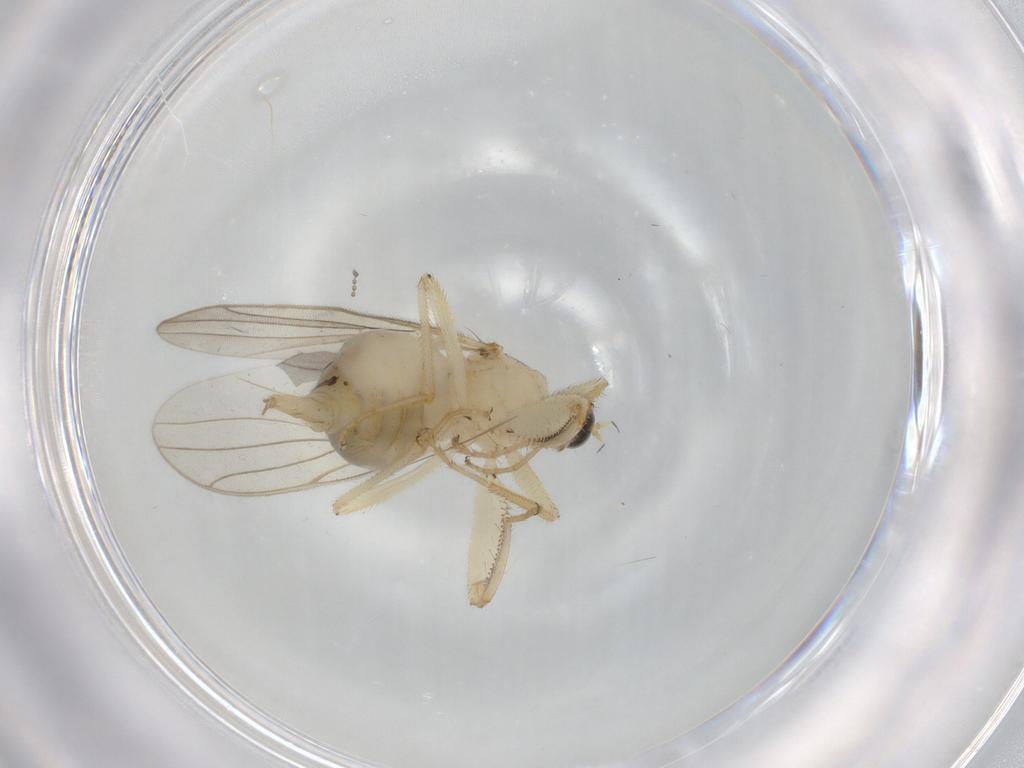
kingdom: Animalia
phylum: Arthropoda
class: Insecta
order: Diptera
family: Hybotidae
